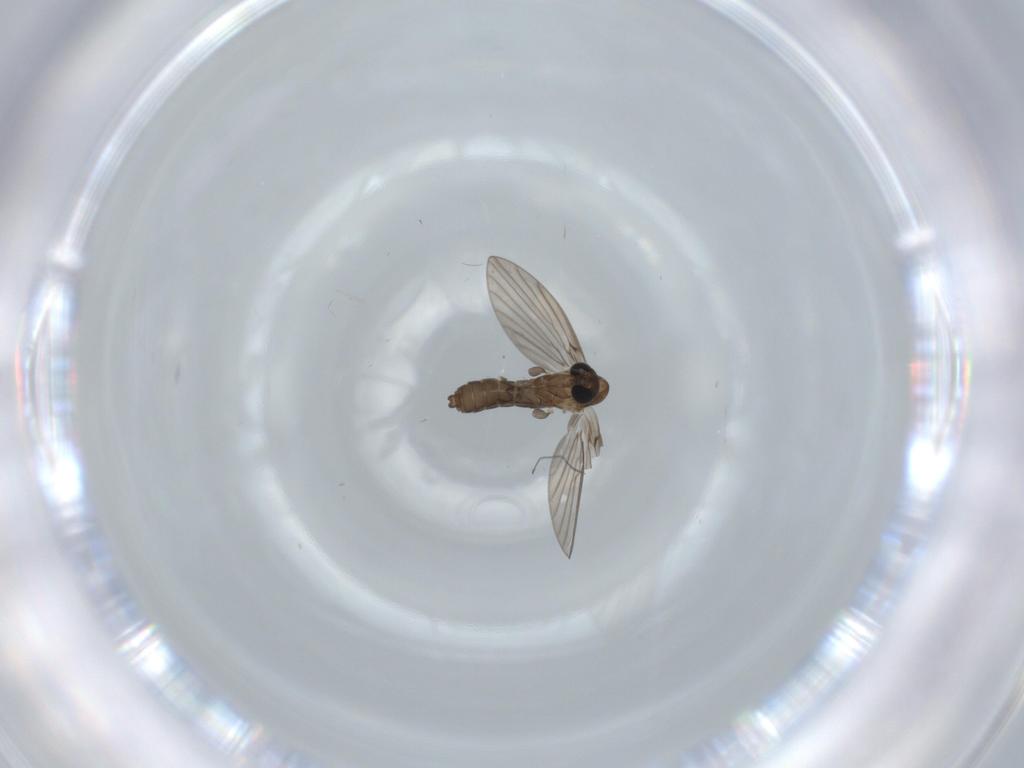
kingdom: Animalia
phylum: Arthropoda
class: Insecta
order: Diptera
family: Psychodidae
